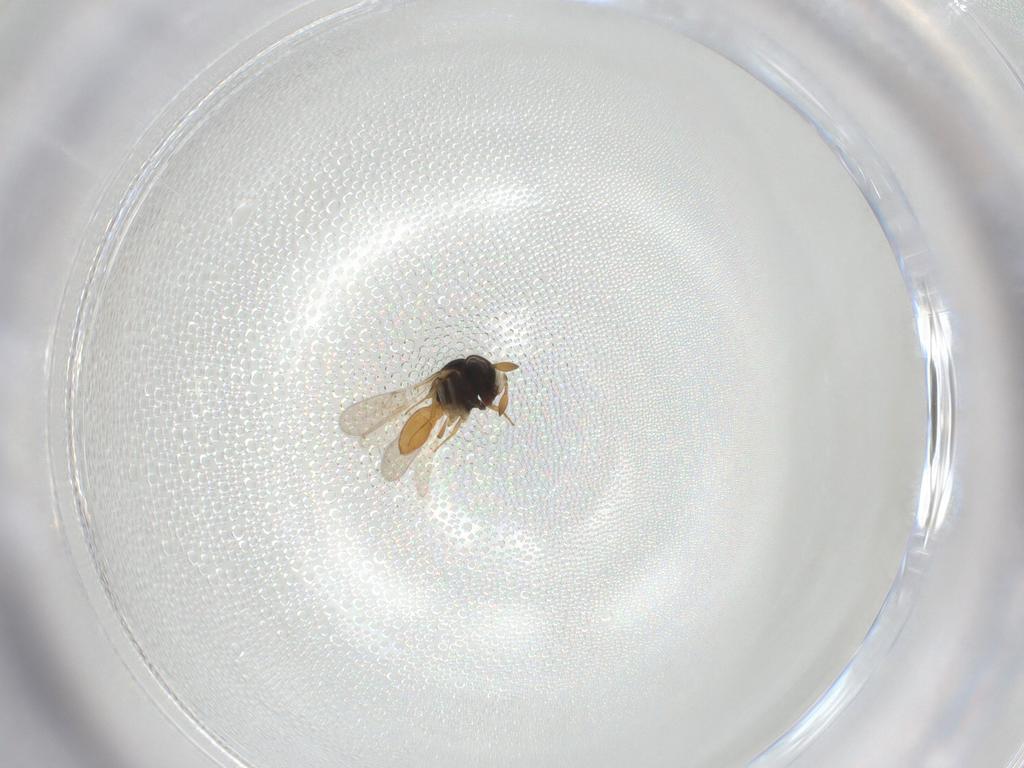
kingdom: Animalia
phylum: Arthropoda
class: Insecta
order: Hymenoptera
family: Scelionidae
